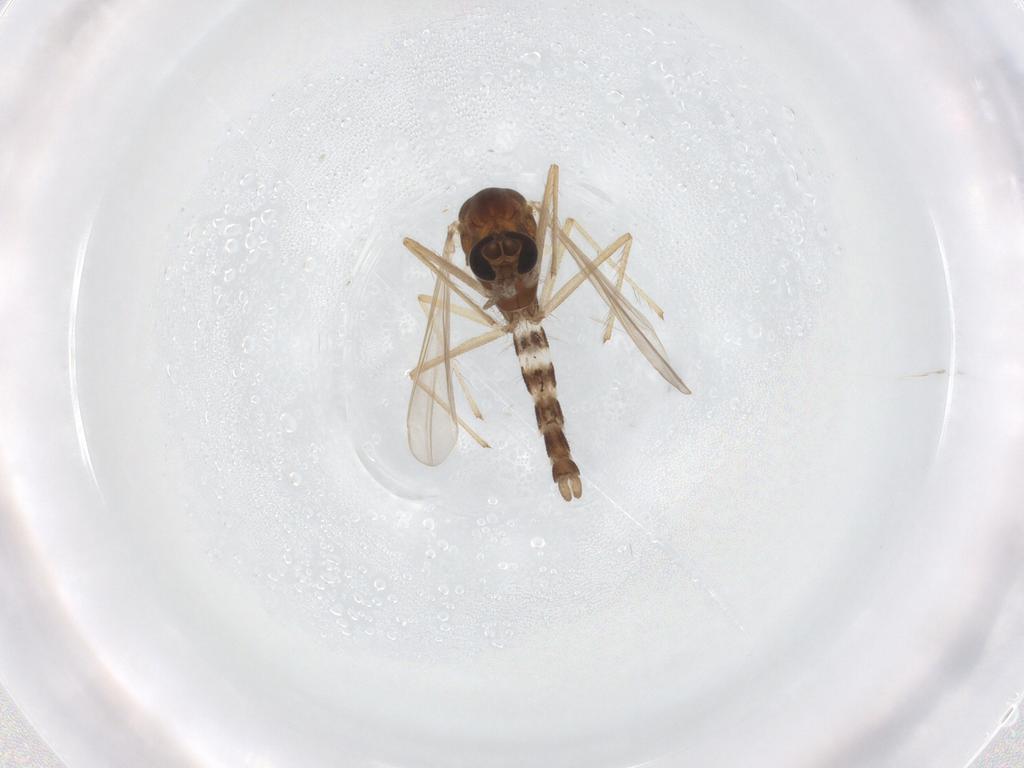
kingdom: Animalia
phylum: Arthropoda
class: Insecta
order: Diptera
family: Chironomidae
